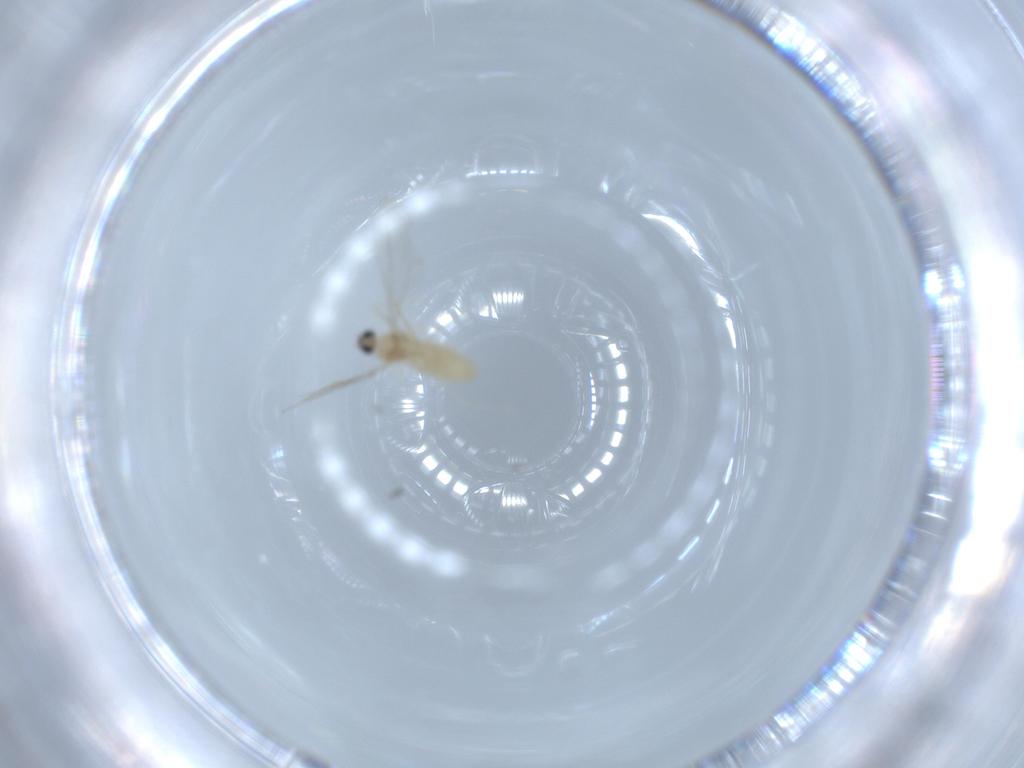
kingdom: Animalia
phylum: Arthropoda
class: Insecta
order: Diptera
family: Cecidomyiidae
